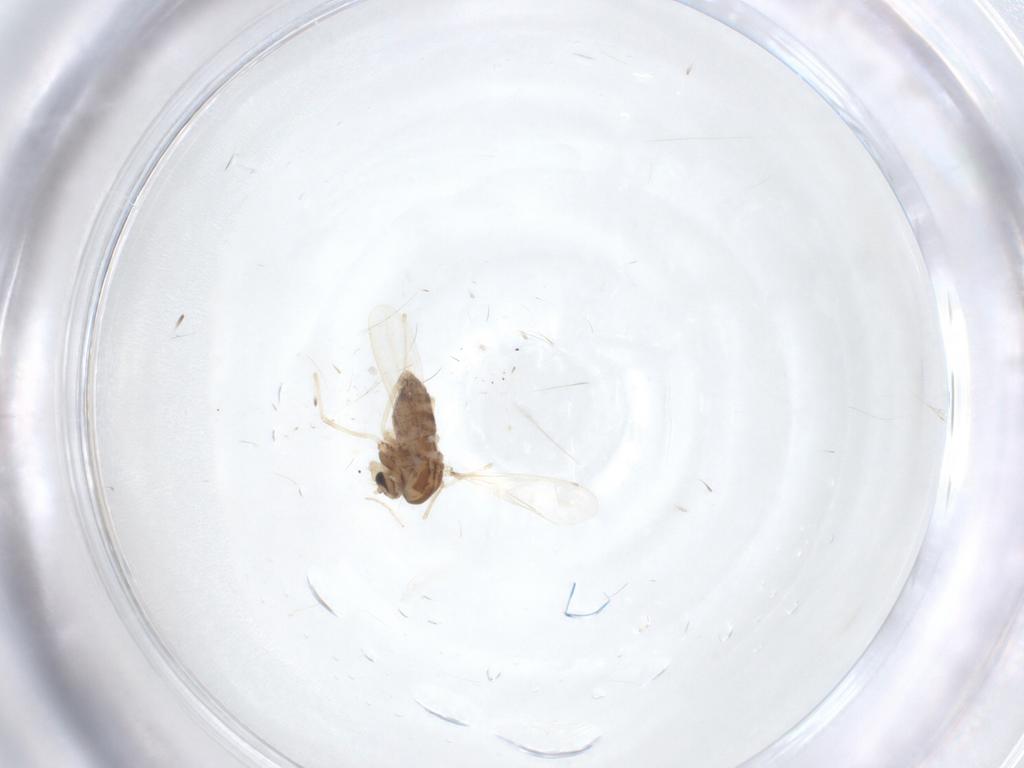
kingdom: Animalia
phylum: Arthropoda
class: Insecta
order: Diptera
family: Chironomidae
